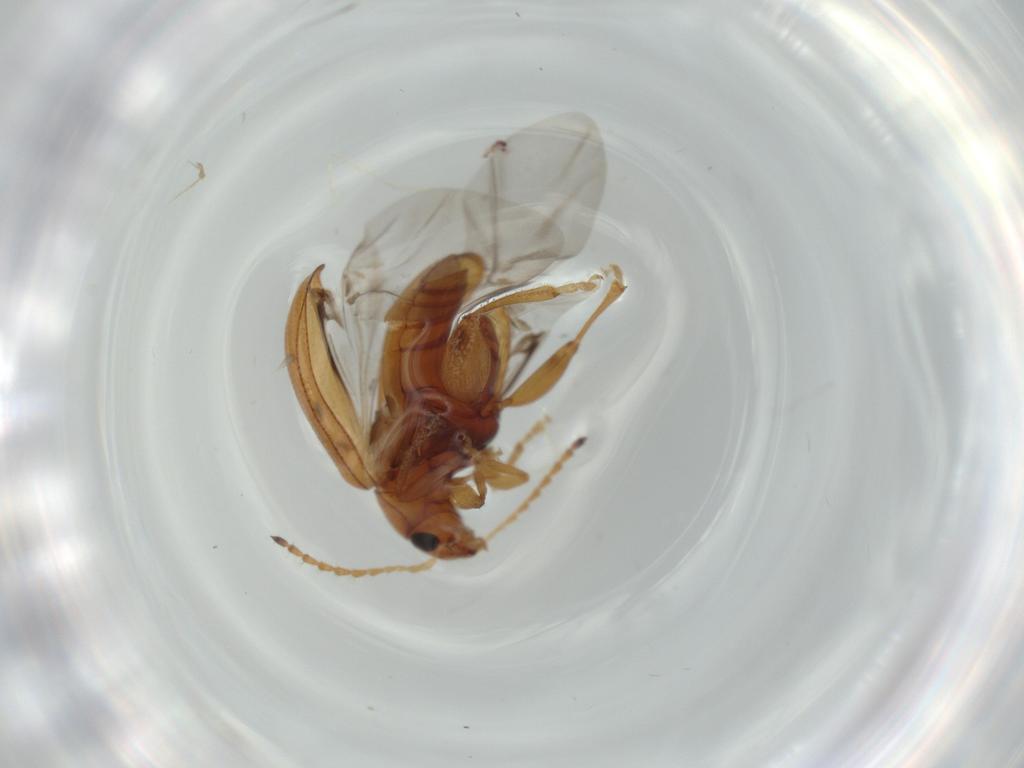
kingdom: Animalia
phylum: Arthropoda
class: Insecta
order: Coleoptera
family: Chrysomelidae
